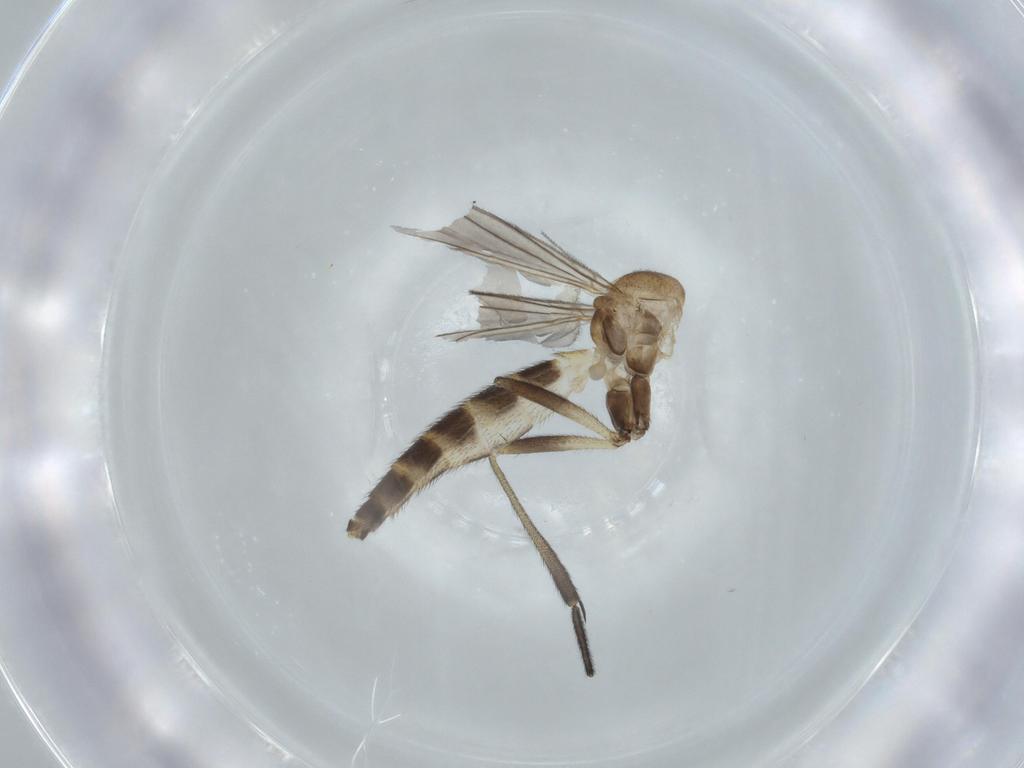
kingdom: Animalia
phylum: Arthropoda
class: Insecta
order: Diptera
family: Keroplatidae
